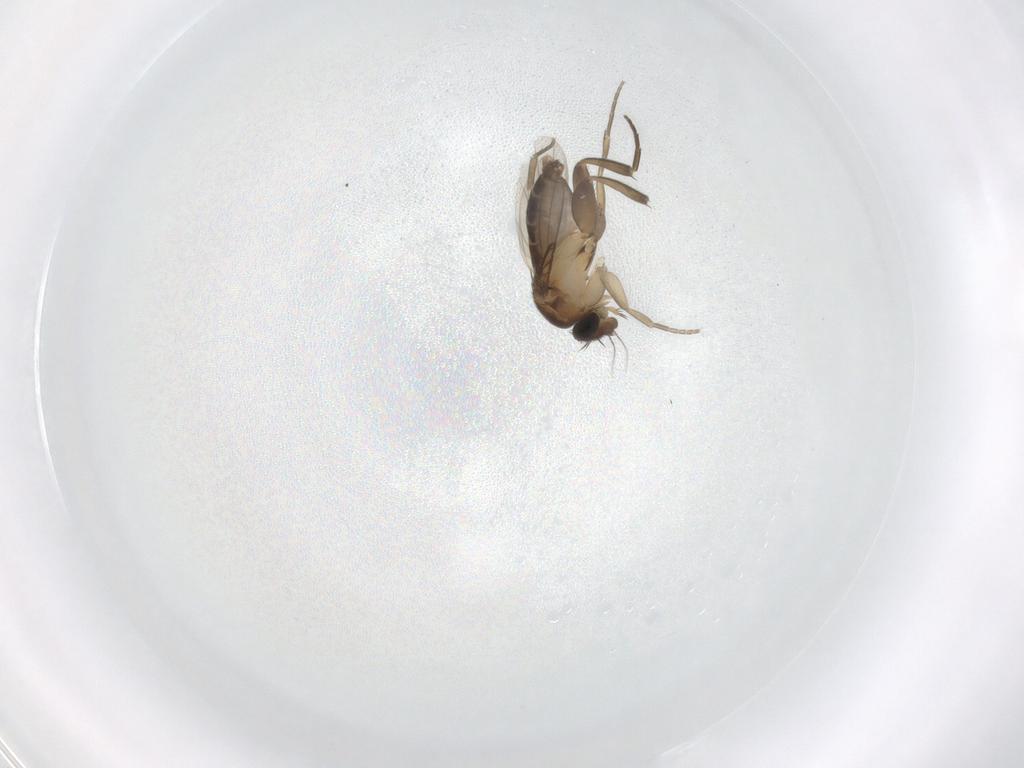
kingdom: Animalia
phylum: Arthropoda
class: Insecta
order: Diptera
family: Phoridae
